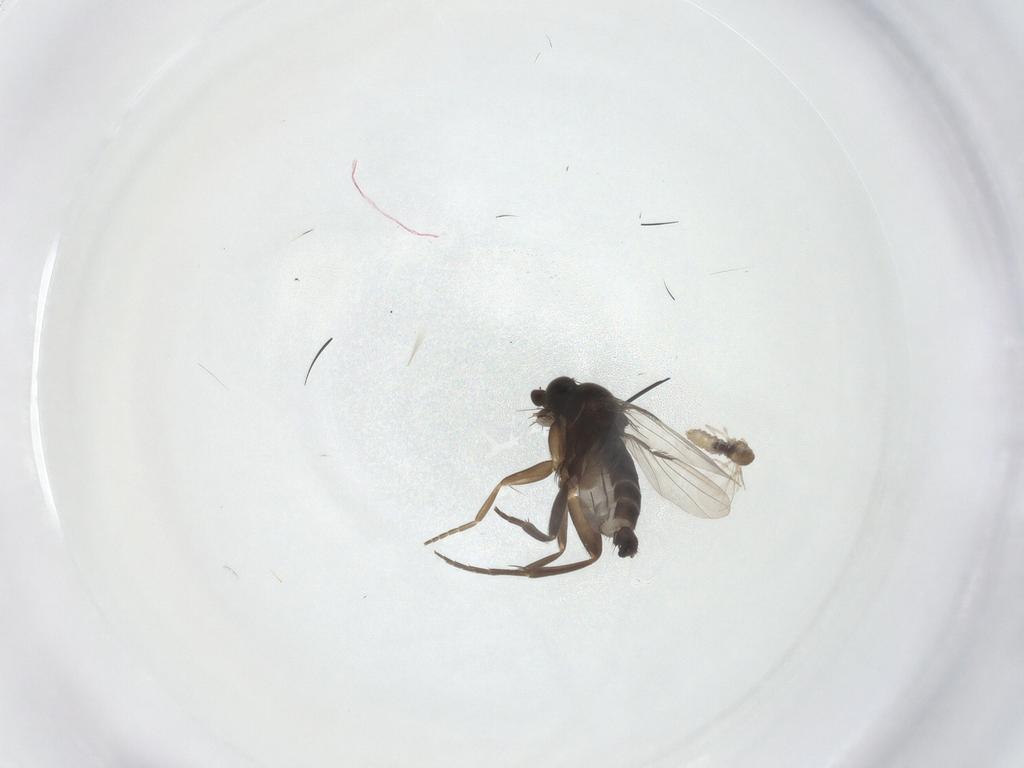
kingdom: Animalia
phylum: Arthropoda
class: Insecta
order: Diptera
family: Cecidomyiidae
